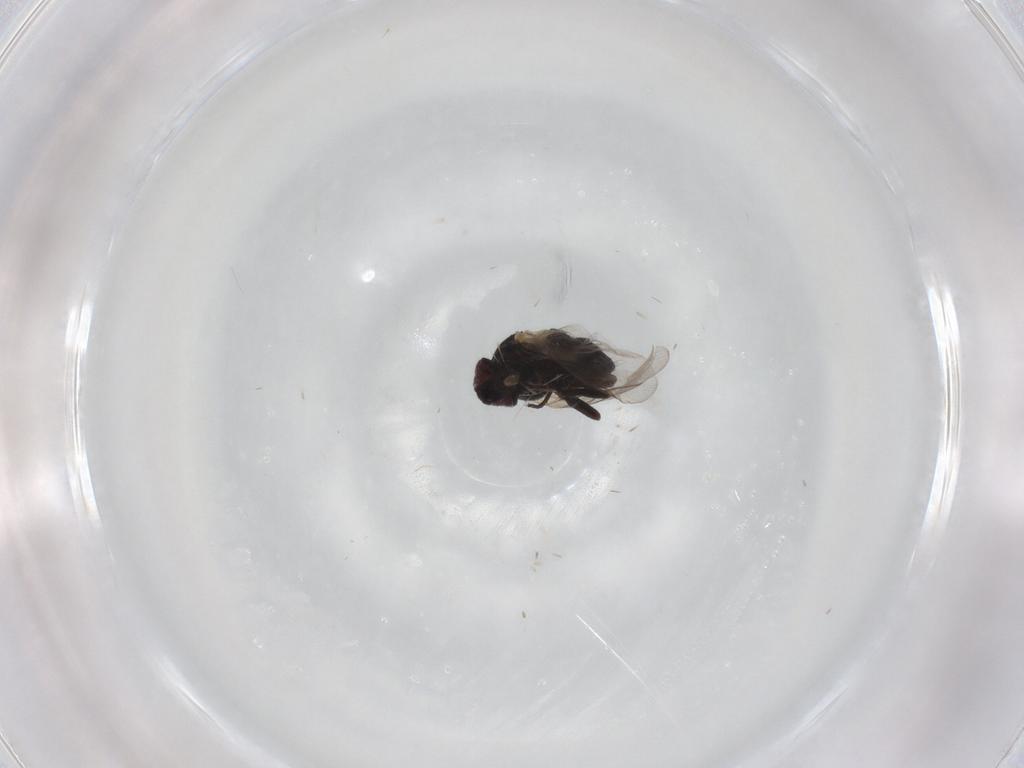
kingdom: Animalia
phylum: Arthropoda
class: Insecta
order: Diptera
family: Sciaridae
